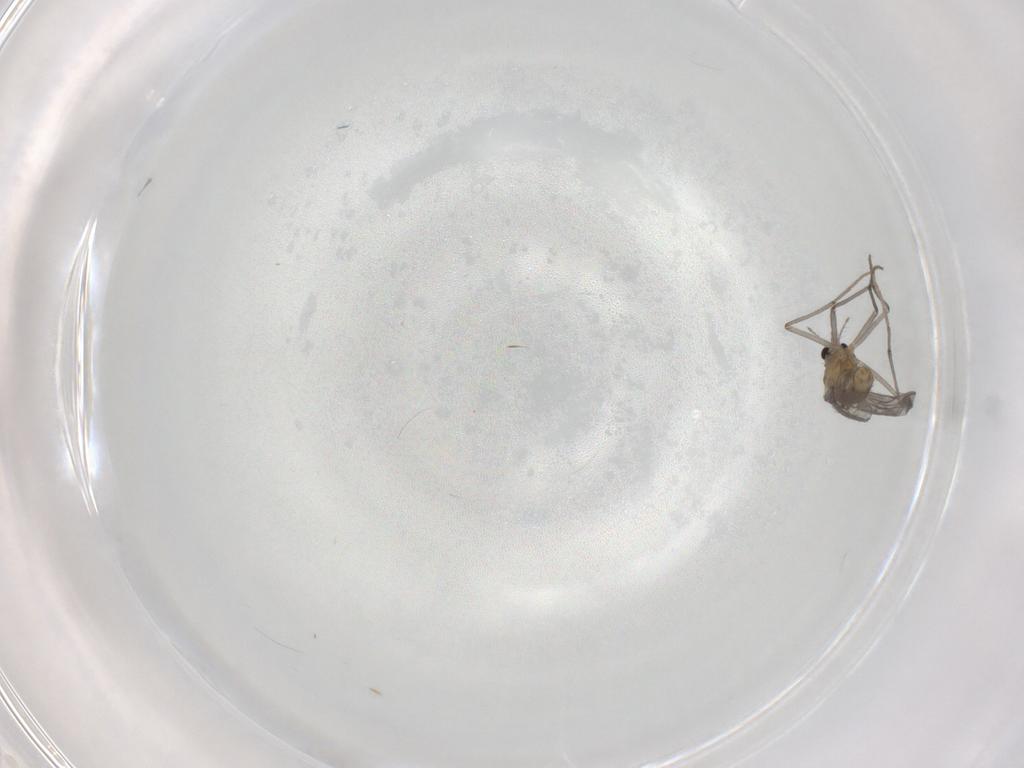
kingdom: Animalia
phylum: Arthropoda
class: Insecta
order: Diptera
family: Chironomidae
